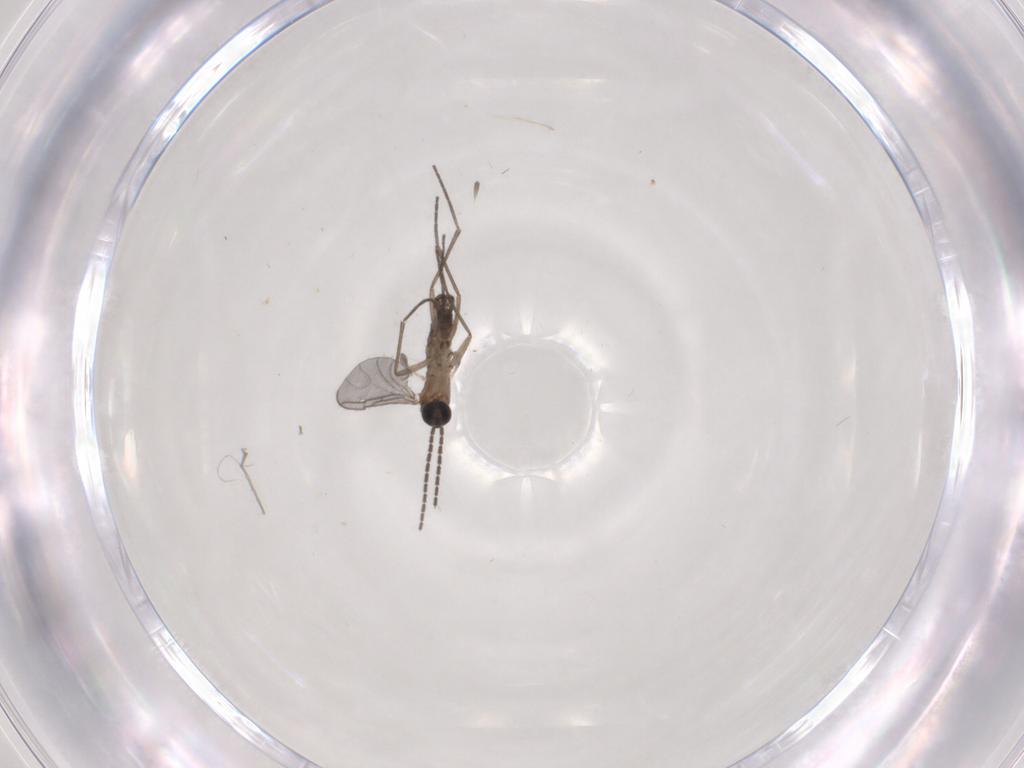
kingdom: Animalia
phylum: Arthropoda
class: Insecta
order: Diptera
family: Sciaridae
